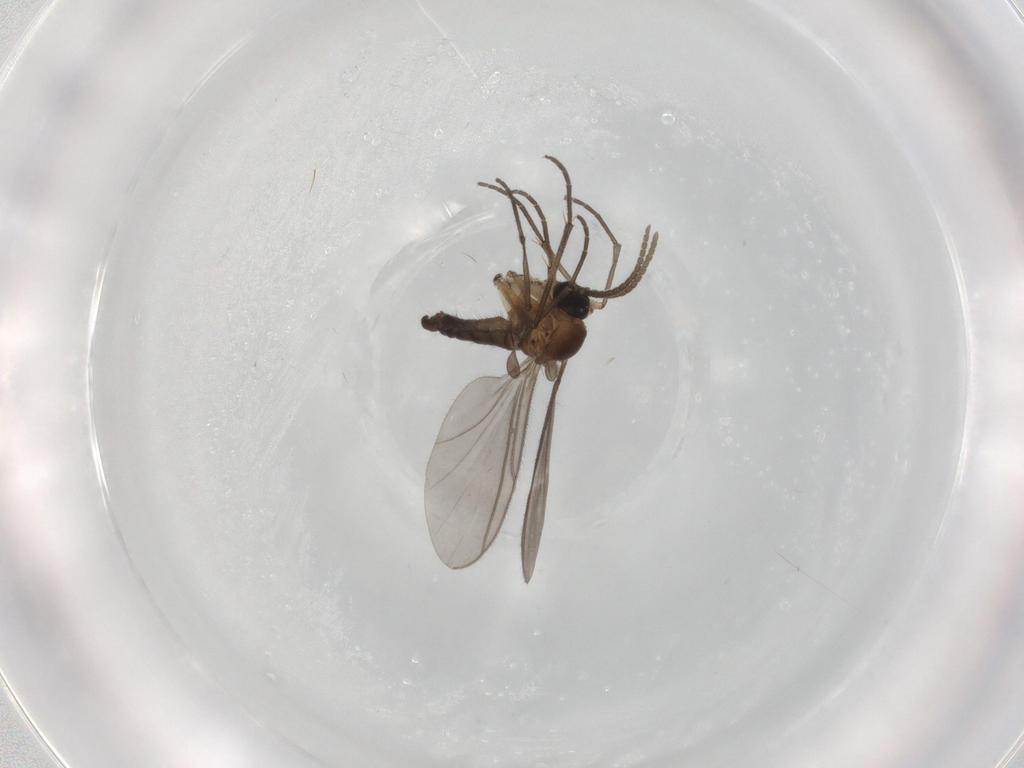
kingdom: Animalia
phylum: Arthropoda
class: Insecta
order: Diptera
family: Drosophilidae
